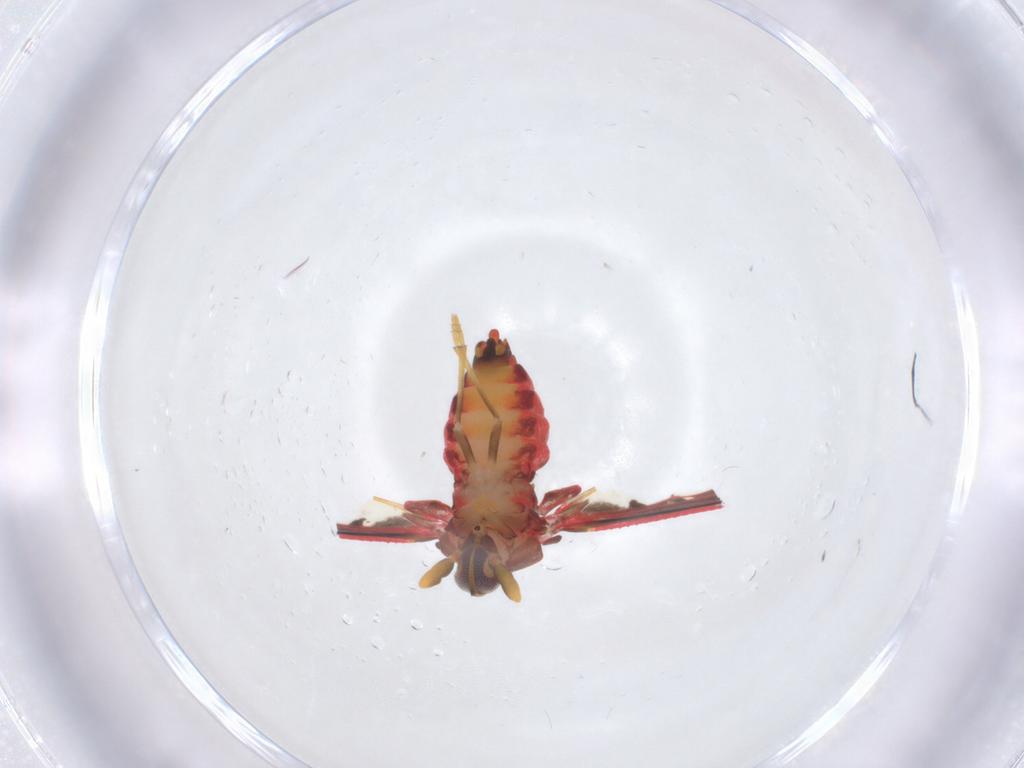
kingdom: Animalia
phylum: Arthropoda
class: Insecta
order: Hemiptera
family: Derbidae
